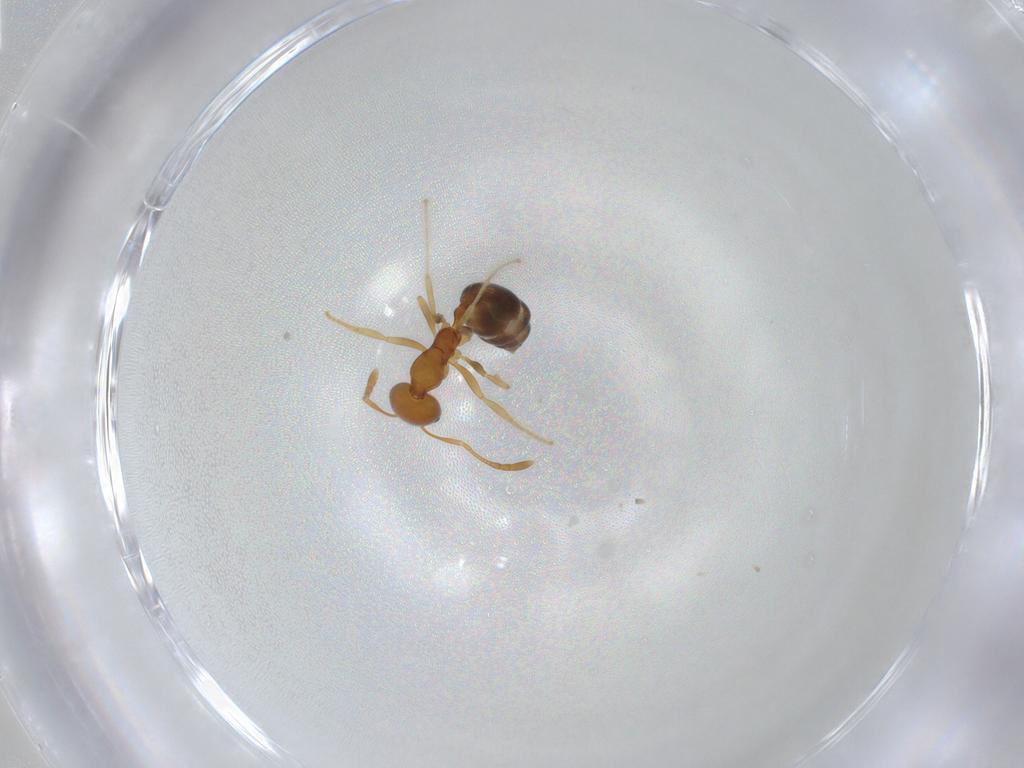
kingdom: Animalia
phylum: Arthropoda
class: Insecta
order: Hymenoptera
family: Formicidae
